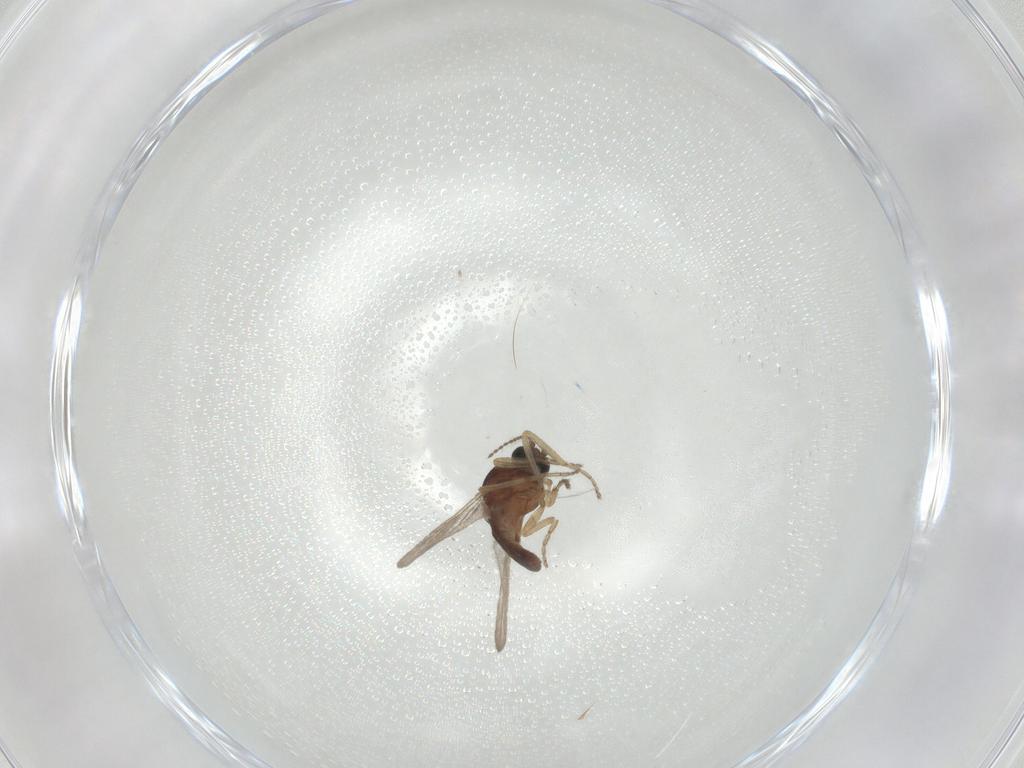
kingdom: Animalia
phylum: Arthropoda
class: Insecta
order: Diptera
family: Ceratopogonidae
